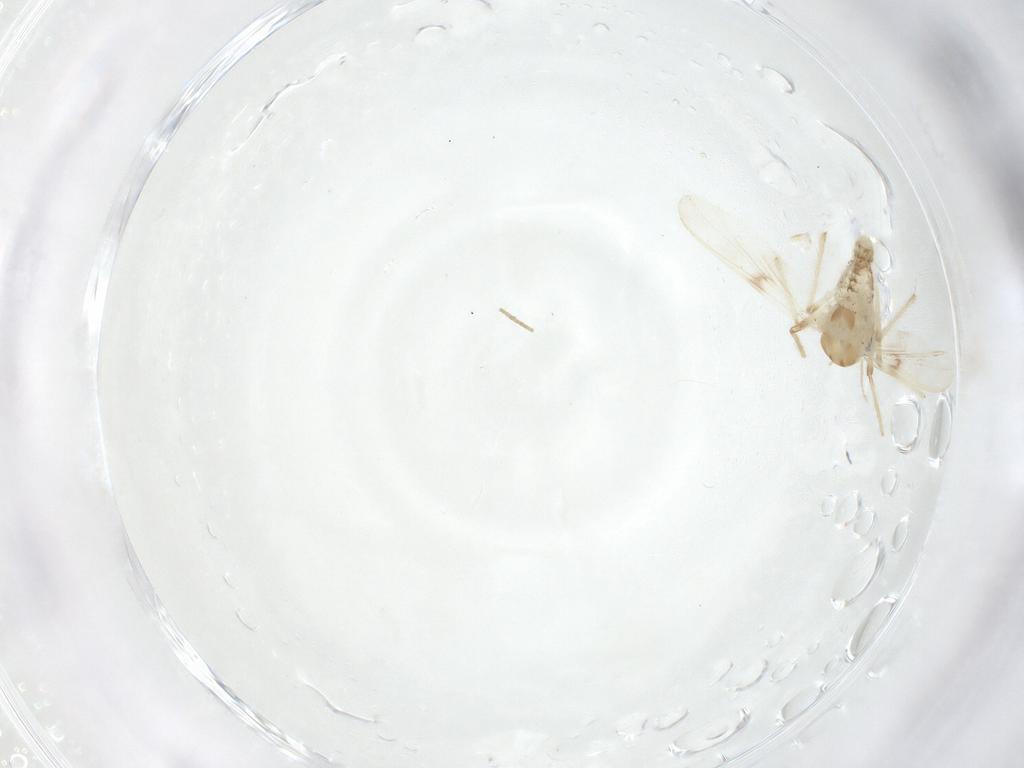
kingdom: Animalia
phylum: Arthropoda
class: Insecta
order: Diptera
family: Chironomidae
